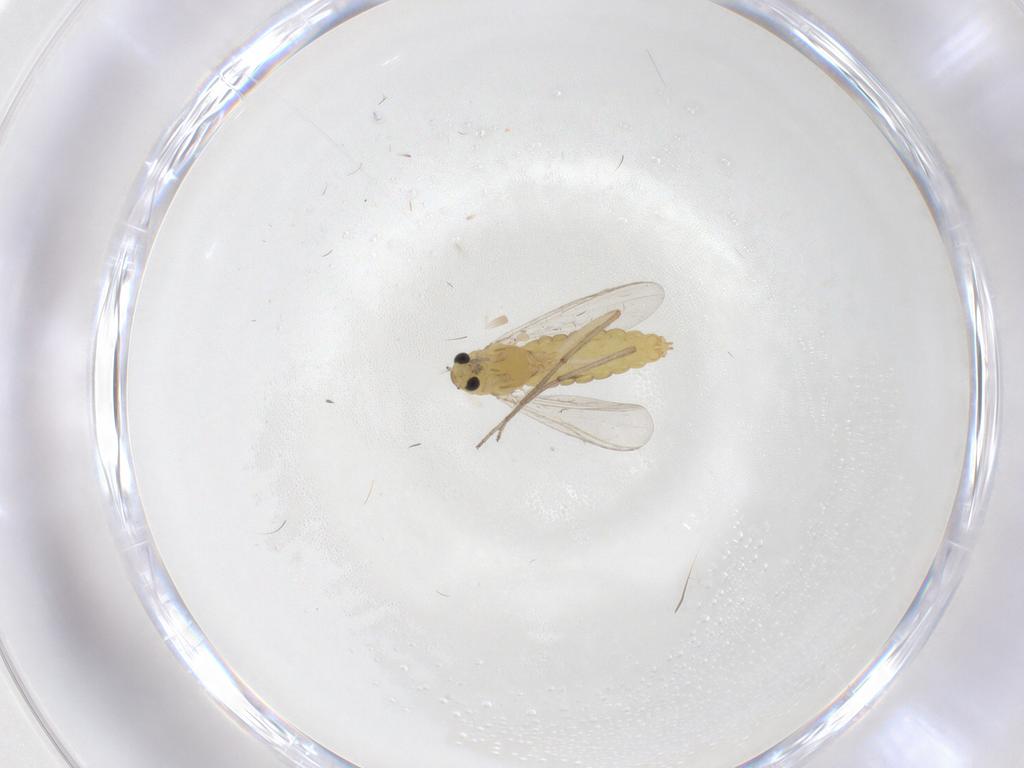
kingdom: Animalia
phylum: Arthropoda
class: Insecta
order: Diptera
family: Chironomidae
